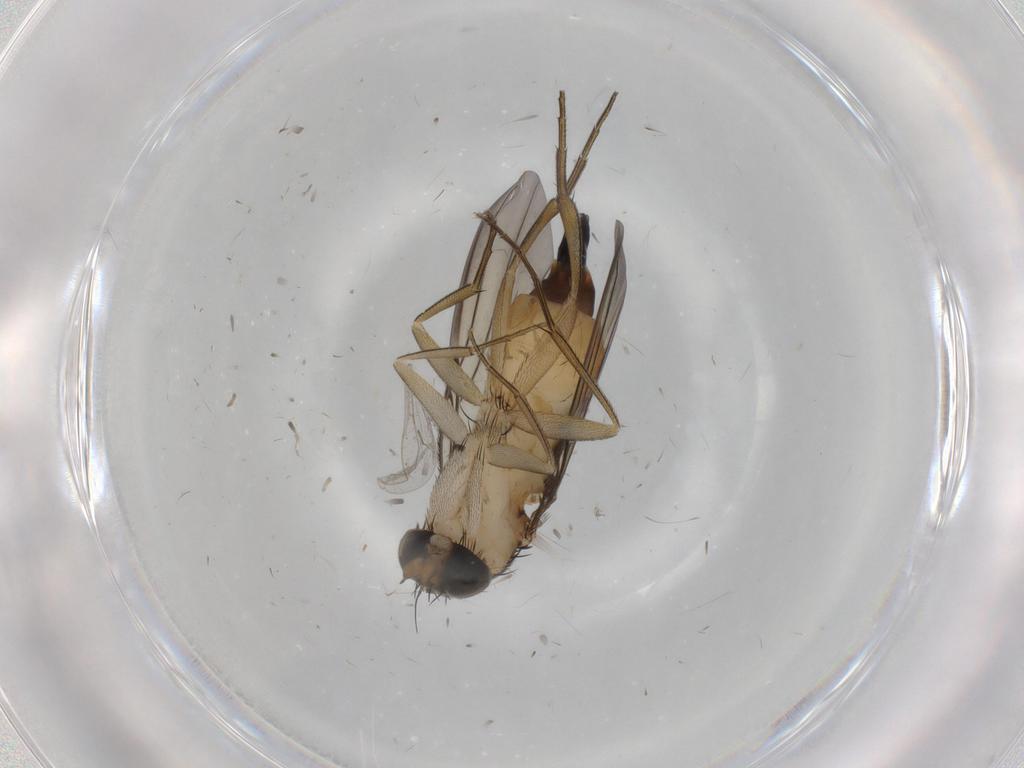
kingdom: Animalia
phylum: Arthropoda
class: Insecta
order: Diptera
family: Phoridae
